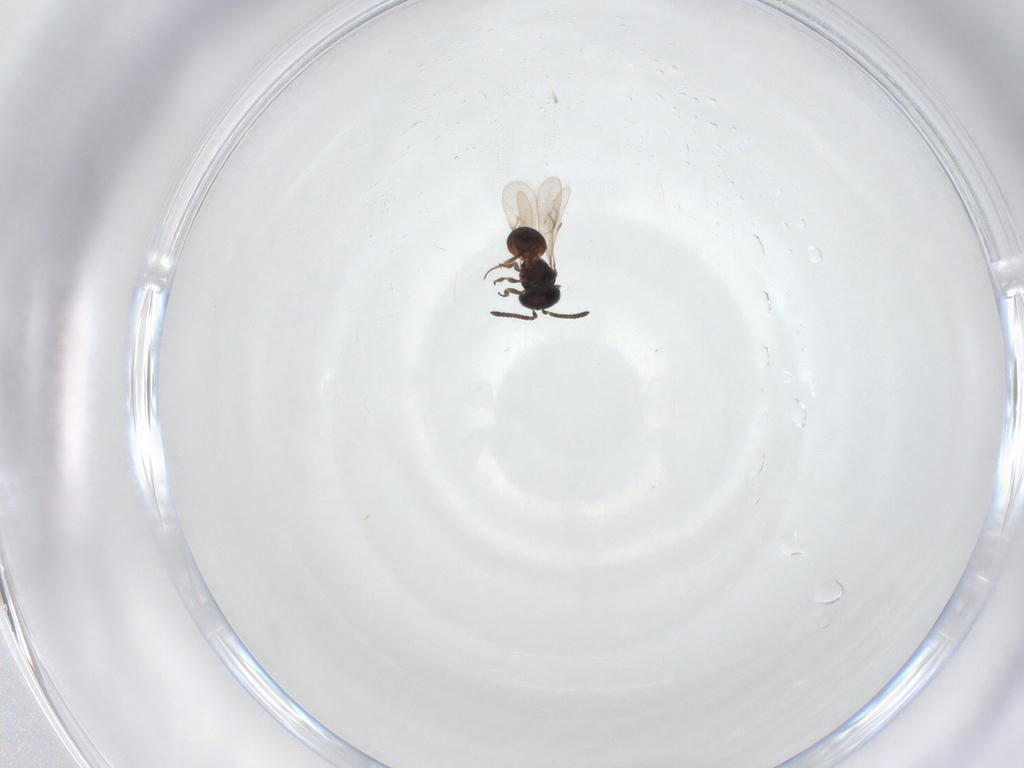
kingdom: Animalia
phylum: Arthropoda
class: Insecta
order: Hymenoptera
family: Scelionidae
